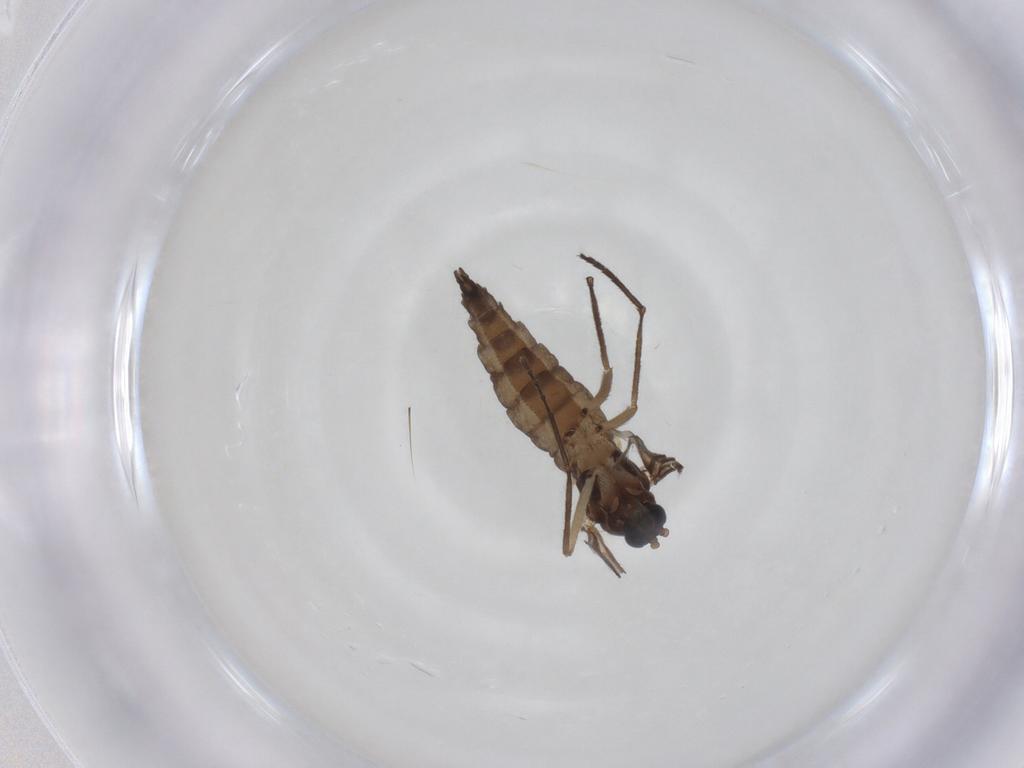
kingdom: Animalia
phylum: Arthropoda
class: Insecta
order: Diptera
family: Sciaridae
